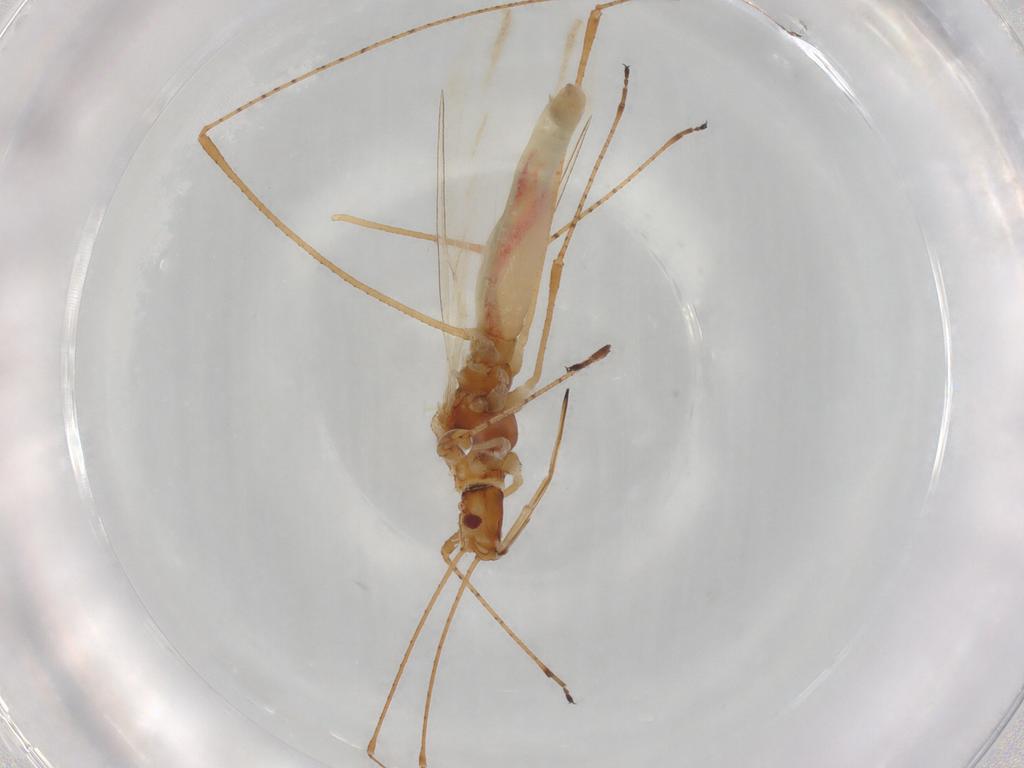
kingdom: Animalia
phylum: Arthropoda
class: Insecta
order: Hemiptera
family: Cymidae
